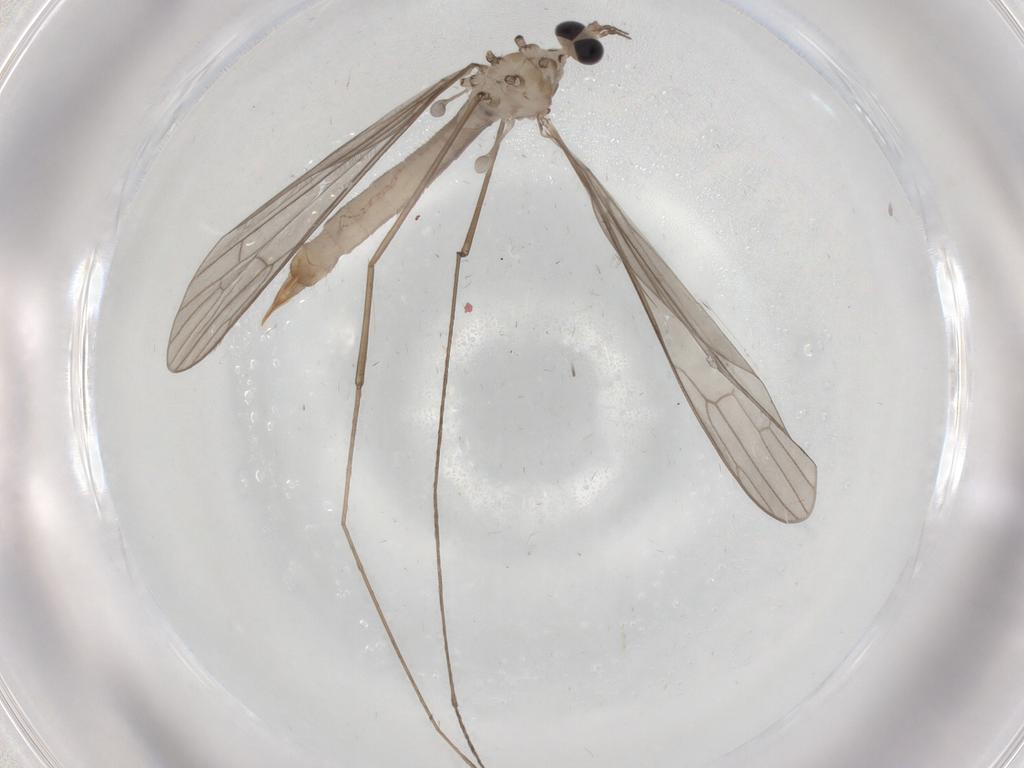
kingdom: Animalia
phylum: Arthropoda
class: Insecta
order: Diptera
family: Limoniidae
